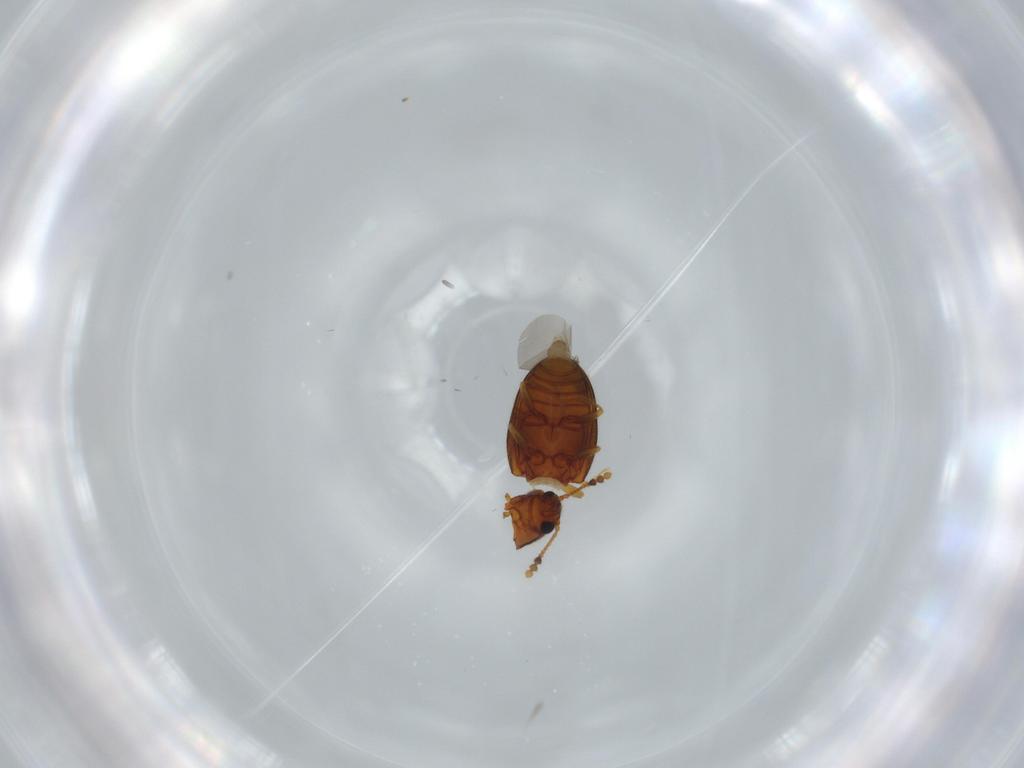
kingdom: Animalia
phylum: Arthropoda
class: Insecta
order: Coleoptera
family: Erotylidae
